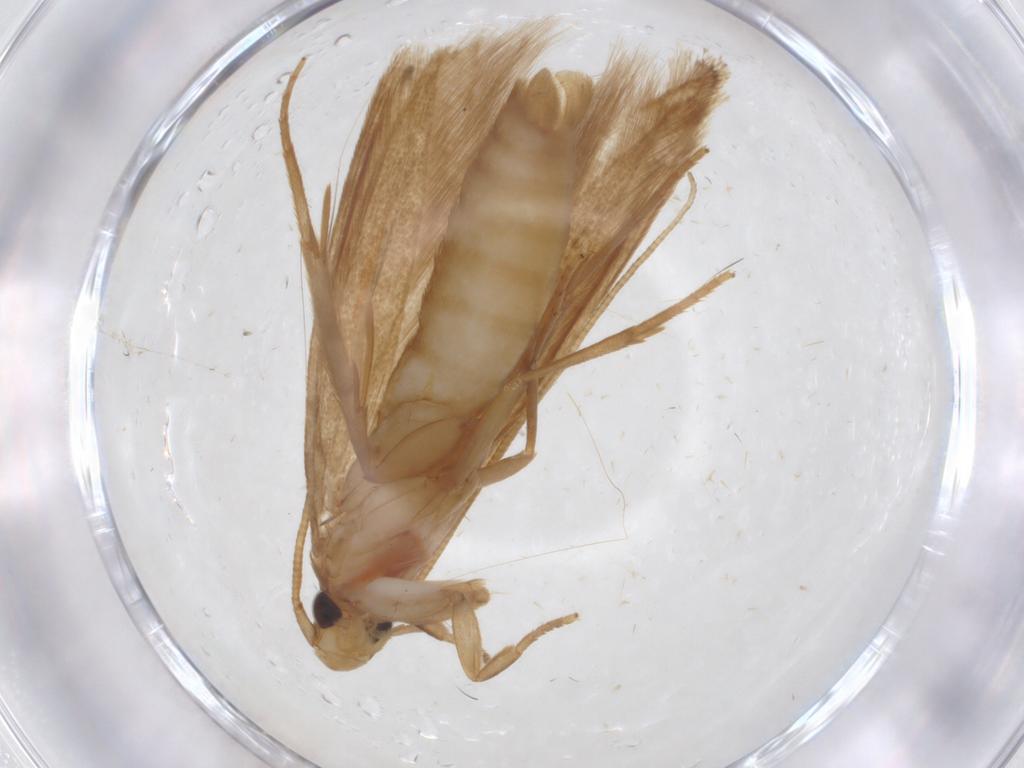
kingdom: Animalia
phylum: Arthropoda
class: Insecta
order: Lepidoptera
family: Tineidae
